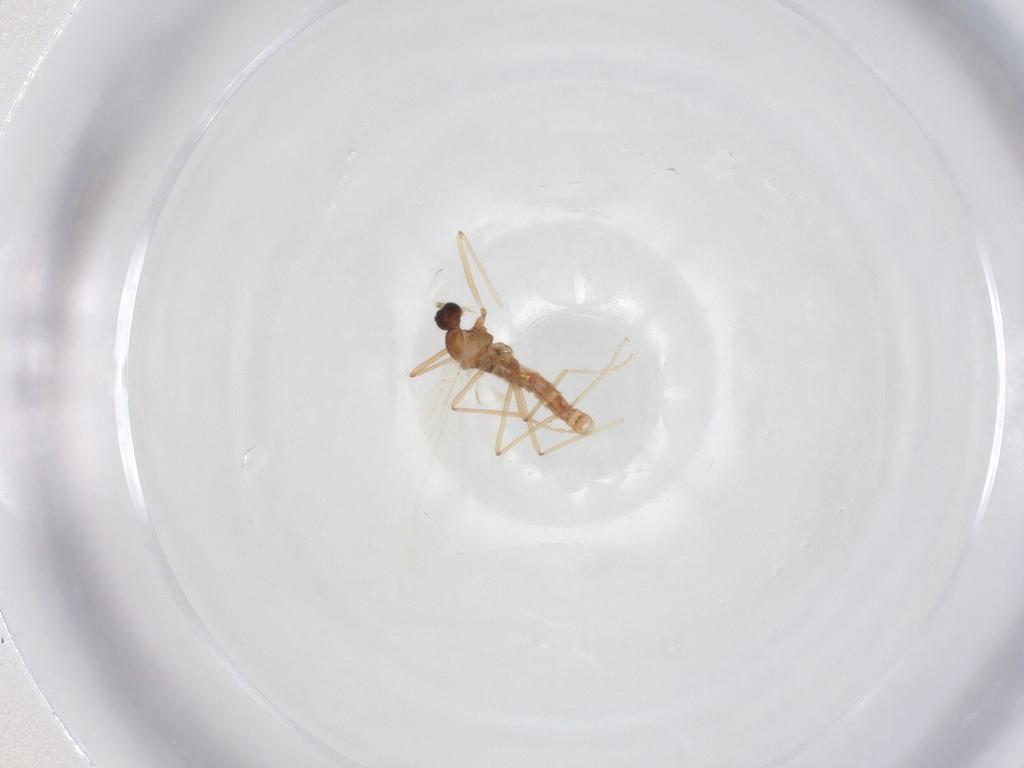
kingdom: Animalia
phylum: Arthropoda
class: Insecta
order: Diptera
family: Cecidomyiidae
